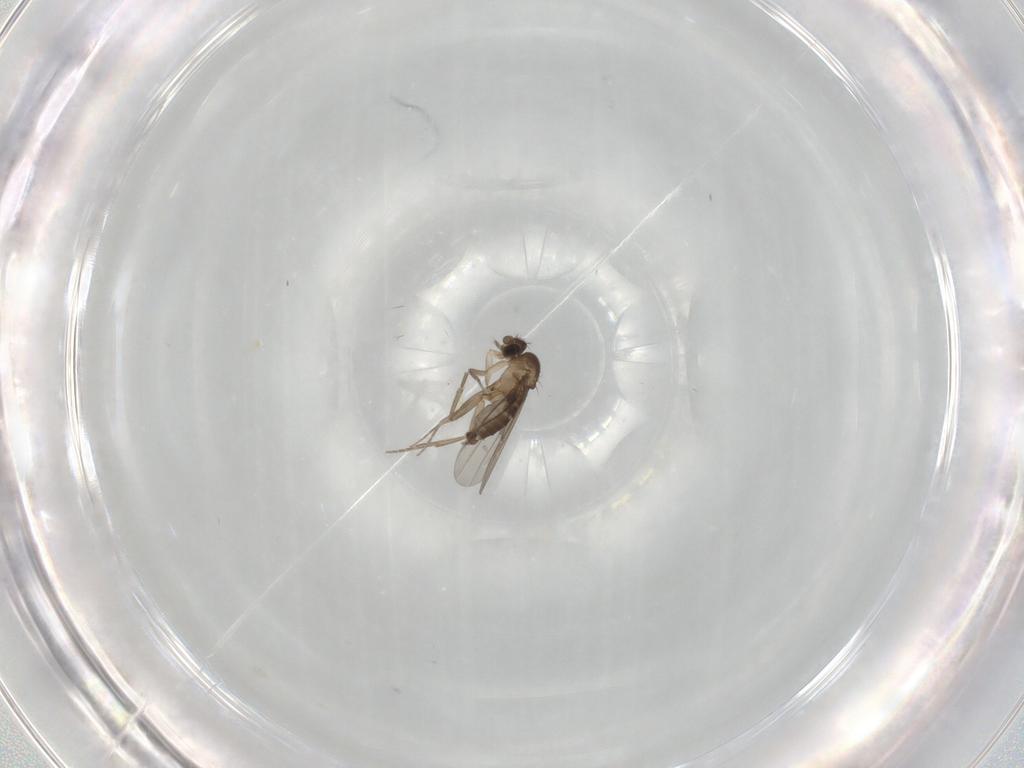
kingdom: Animalia
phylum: Arthropoda
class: Insecta
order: Diptera
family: Phoridae
